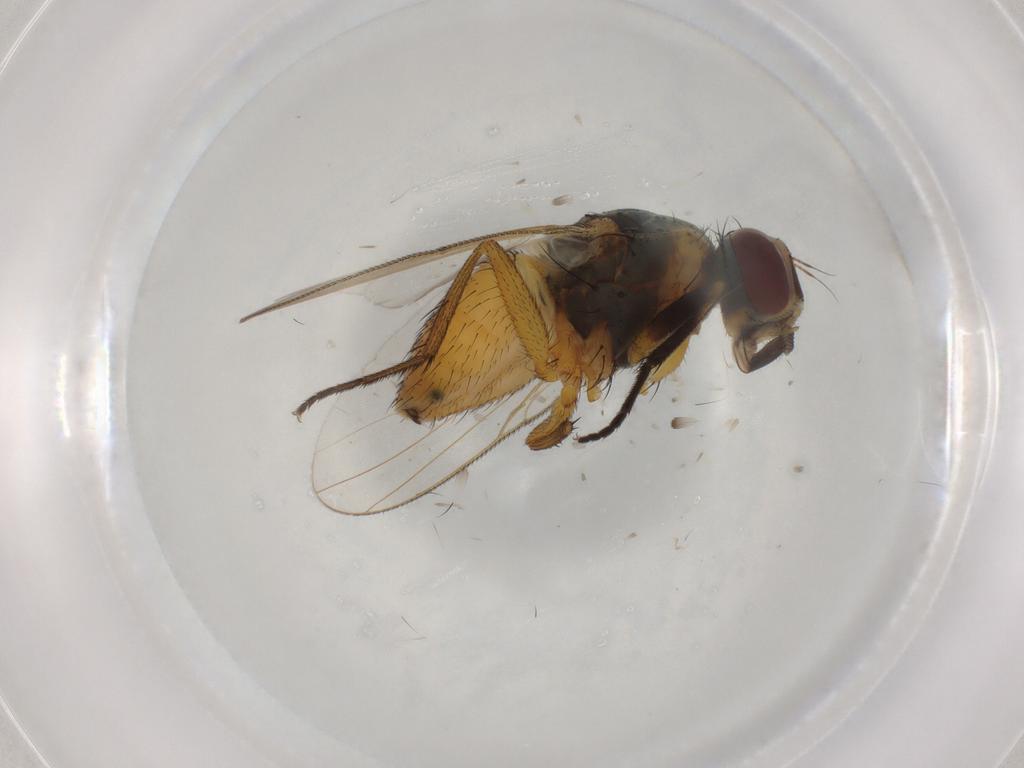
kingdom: Animalia
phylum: Arthropoda
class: Insecta
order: Diptera
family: Muscidae
